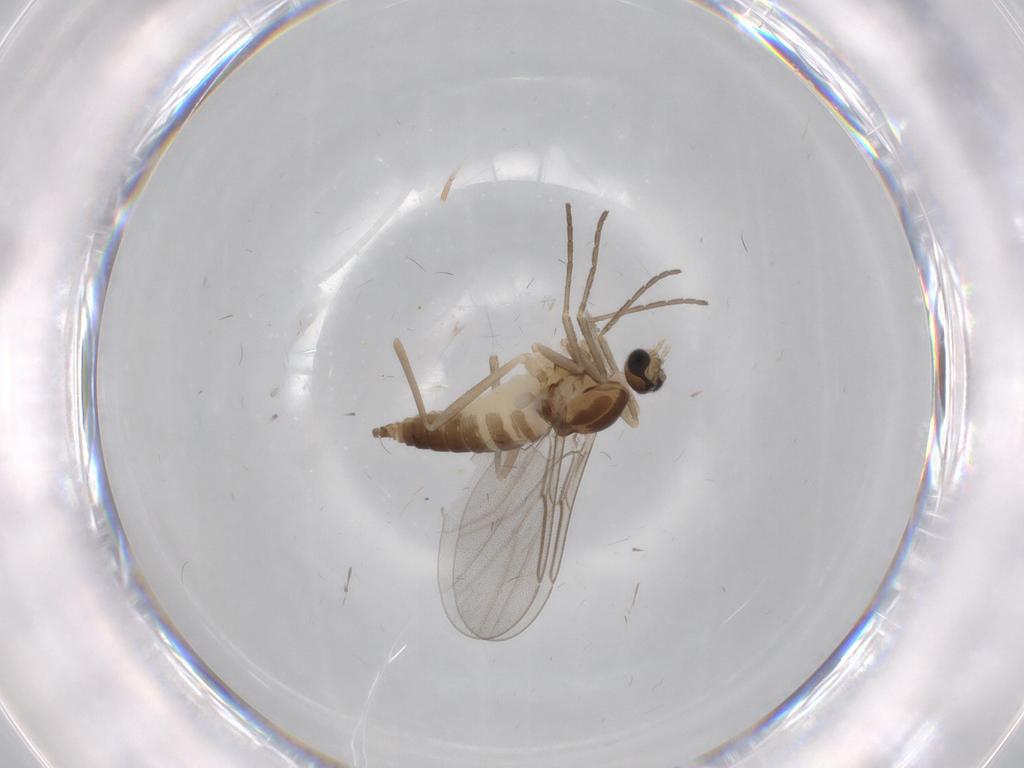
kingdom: Animalia
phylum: Arthropoda
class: Insecta
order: Diptera
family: Cecidomyiidae
